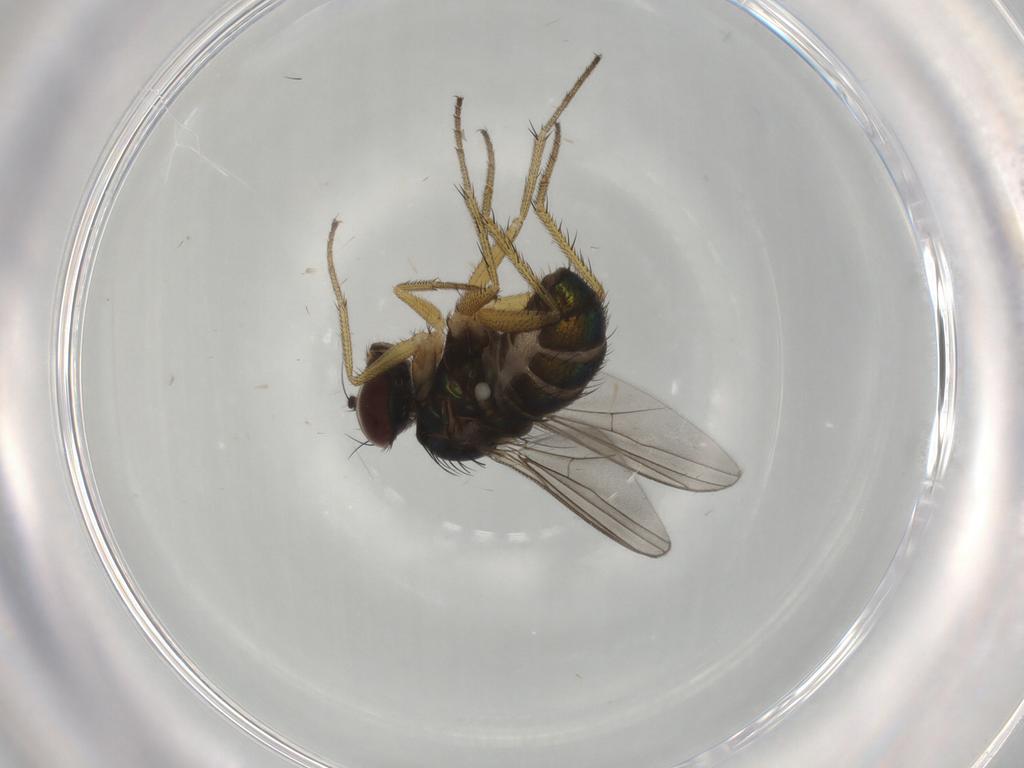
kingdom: Animalia
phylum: Arthropoda
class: Insecta
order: Diptera
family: Dolichopodidae
